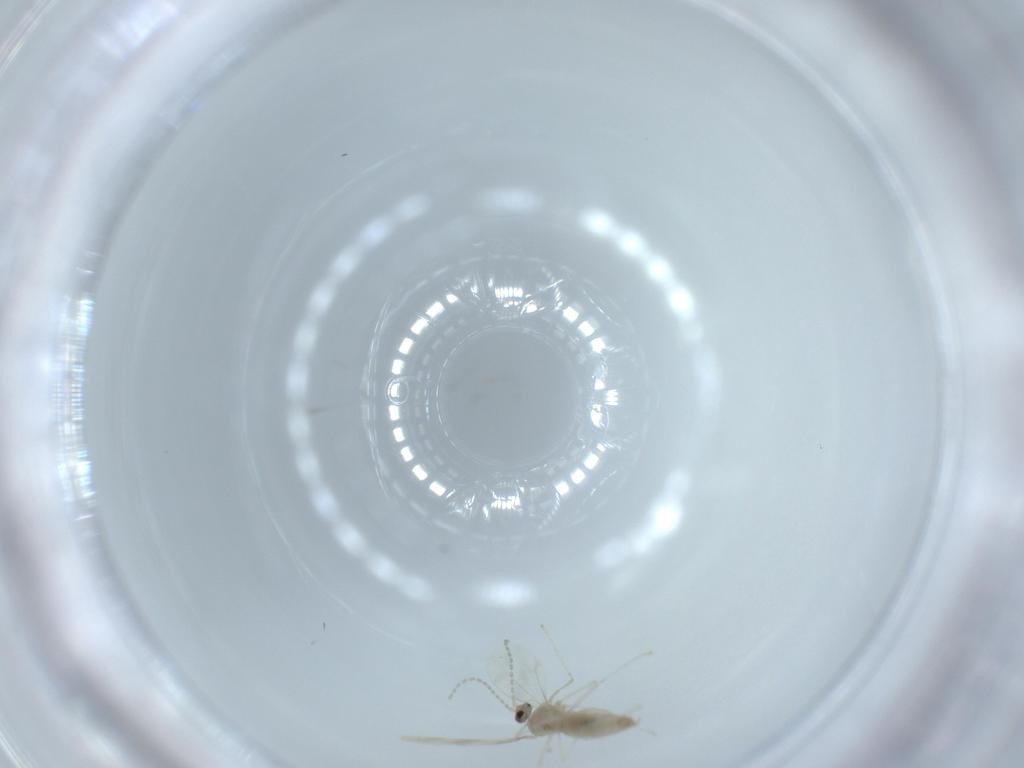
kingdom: Animalia
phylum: Arthropoda
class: Insecta
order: Diptera
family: Cecidomyiidae
